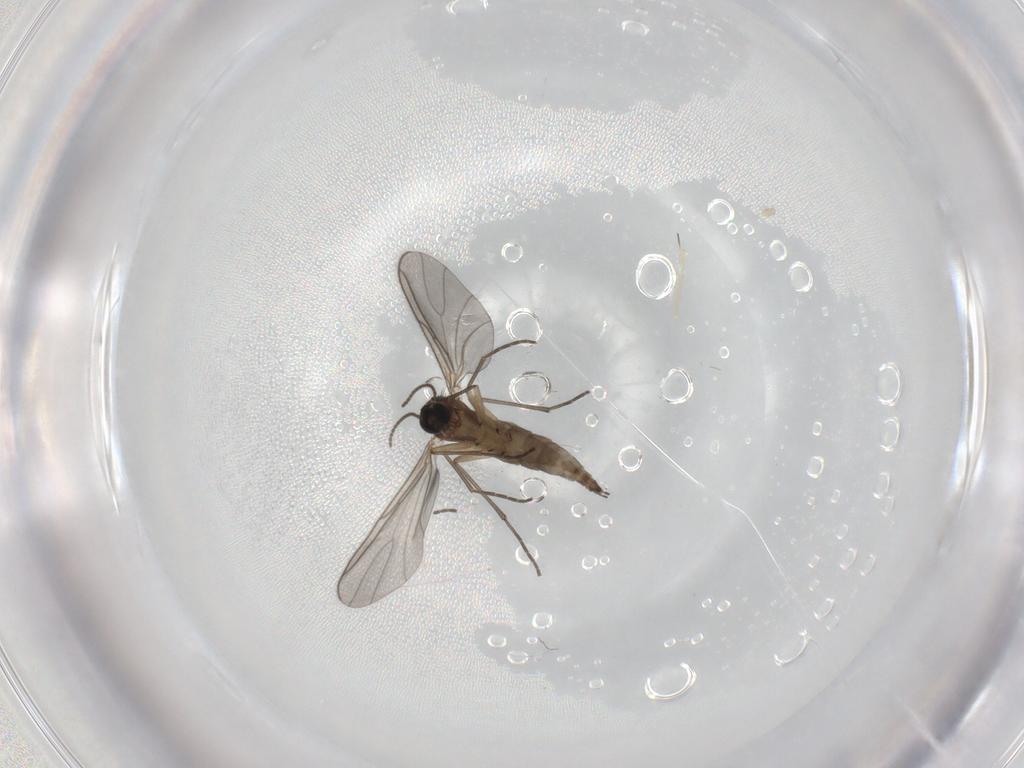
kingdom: Animalia
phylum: Arthropoda
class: Insecta
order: Diptera
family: Sciaridae
